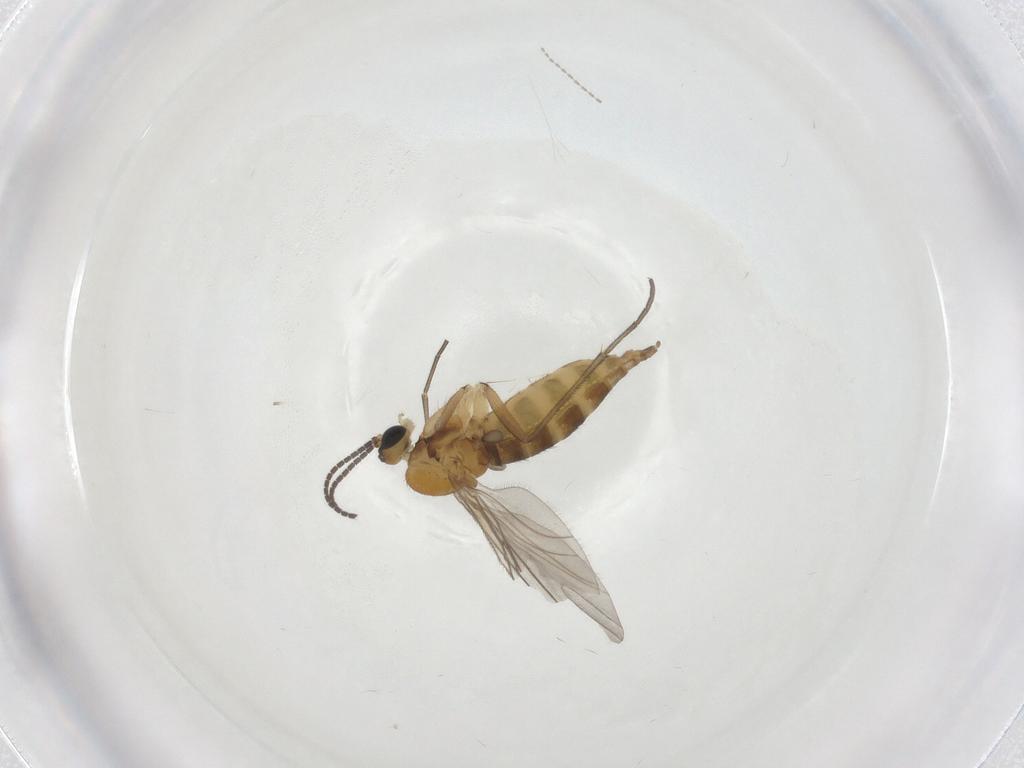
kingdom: Animalia
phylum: Arthropoda
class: Insecta
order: Diptera
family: Sciaridae
